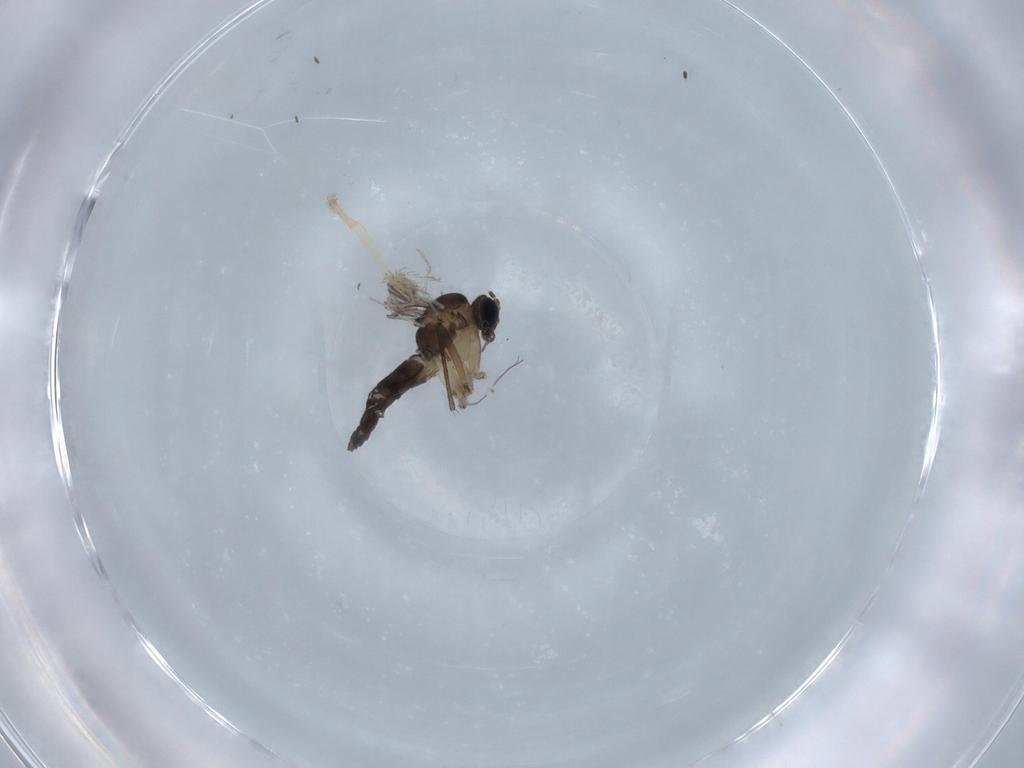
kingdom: Animalia
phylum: Arthropoda
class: Insecta
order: Diptera
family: Sciaridae
